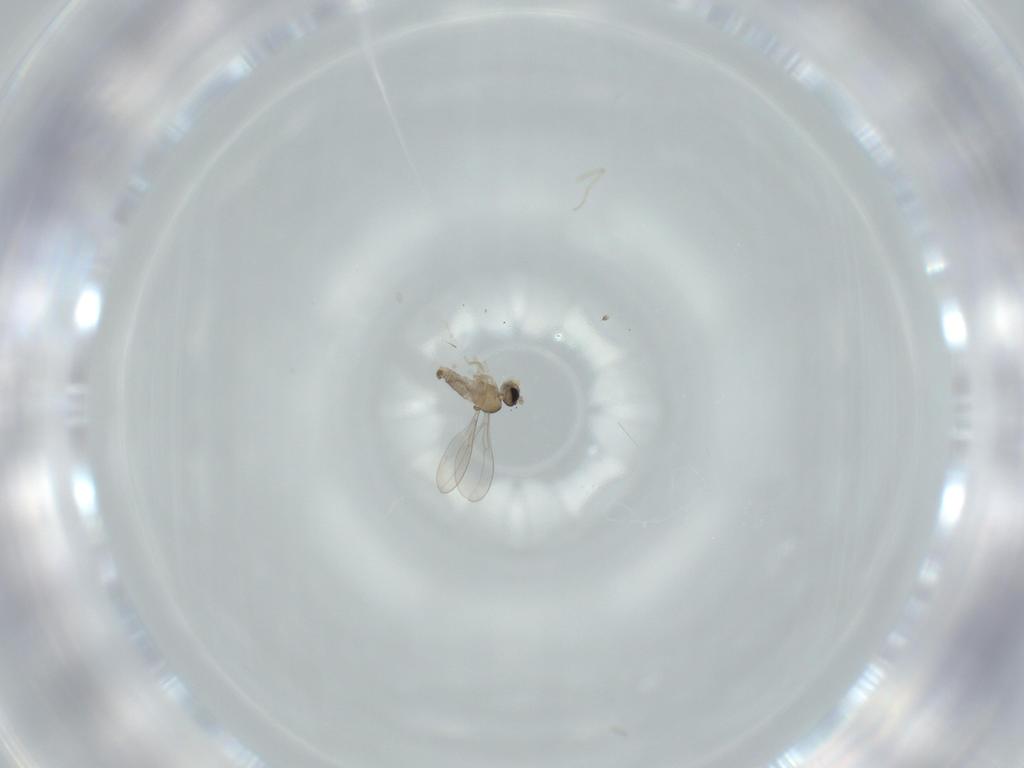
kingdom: Animalia
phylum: Arthropoda
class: Insecta
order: Diptera
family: Cecidomyiidae
